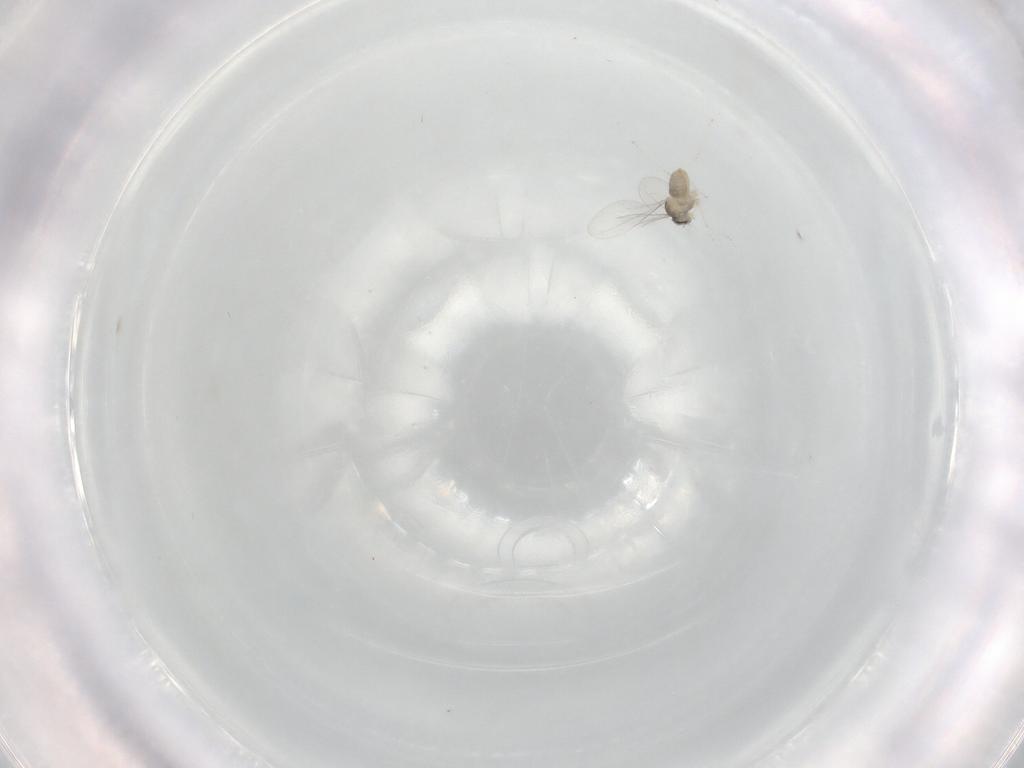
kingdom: Animalia
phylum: Arthropoda
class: Insecta
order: Diptera
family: Cecidomyiidae
